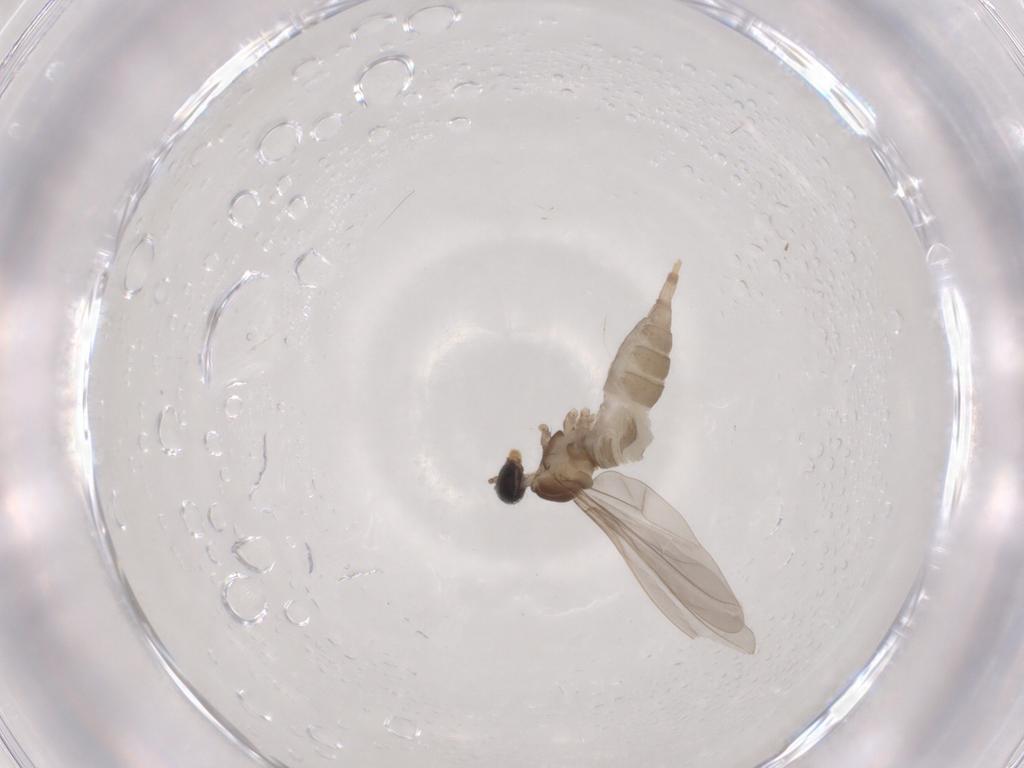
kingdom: Animalia
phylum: Arthropoda
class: Insecta
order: Diptera
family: Cecidomyiidae
